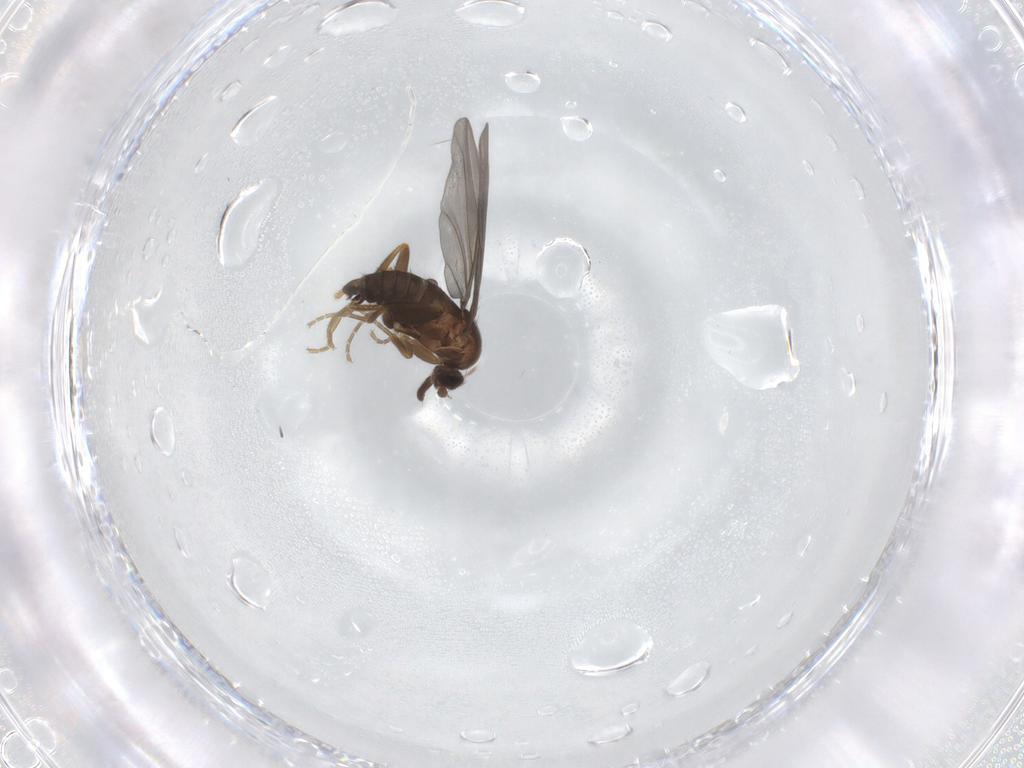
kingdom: Animalia
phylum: Arthropoda
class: Insecta
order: Diptera
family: Phoridae
